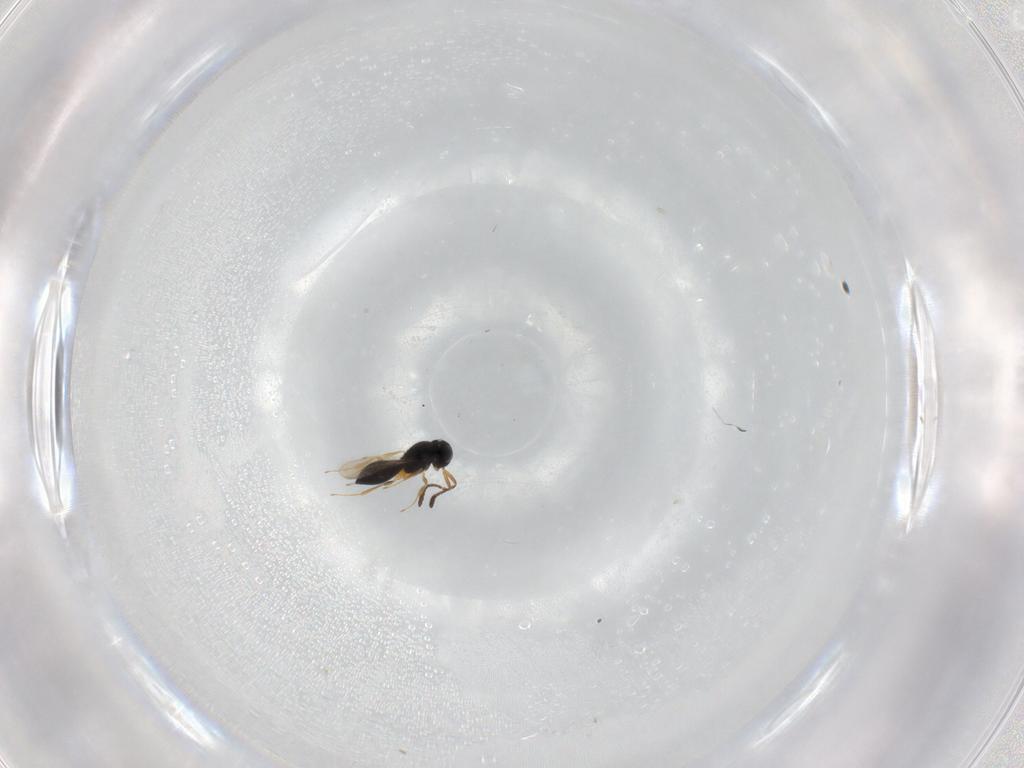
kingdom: Animalia
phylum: Arthropoda
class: Insecta
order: Hymenoptera
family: Scelionidae
